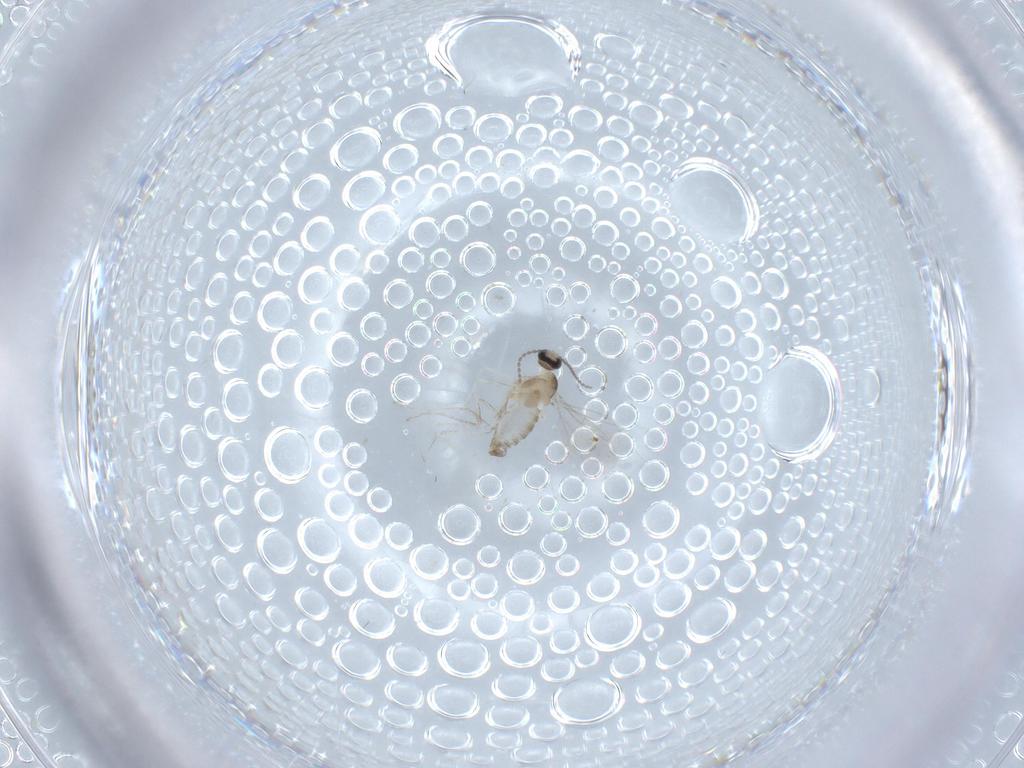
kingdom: Animalia
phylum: Arthropoda
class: Insecta
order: Diptera
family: Cecidomyiidae
